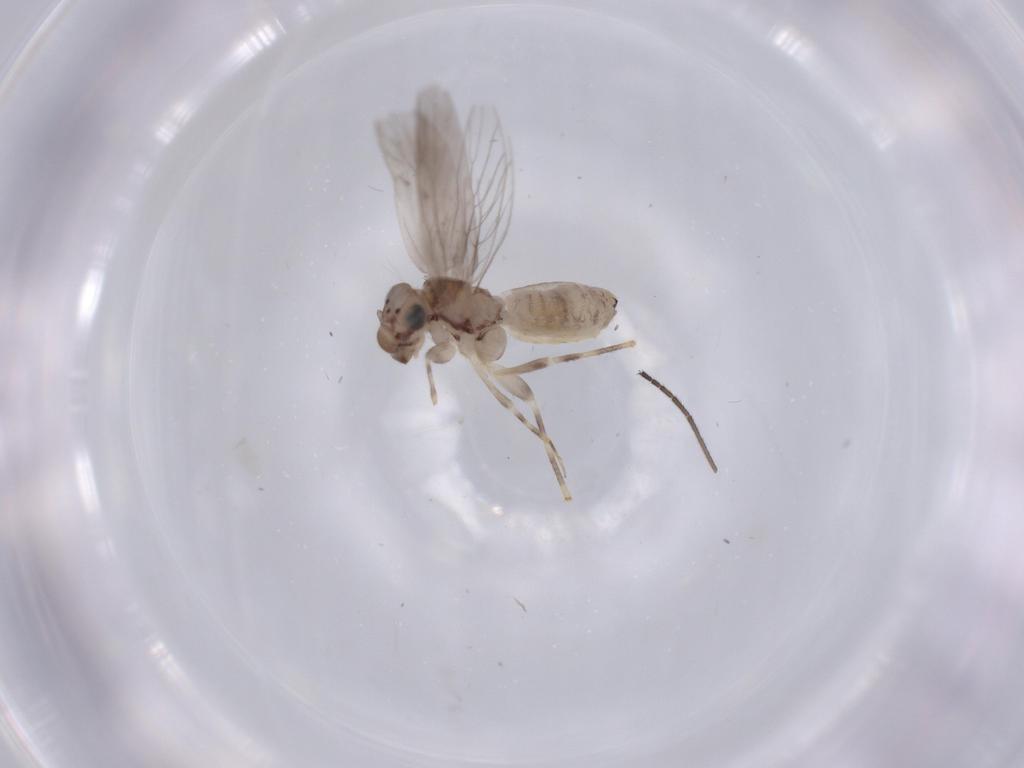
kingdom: Animalia
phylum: Arthropoda
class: Insecta
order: Psocodea
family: Lepidopsocidae
